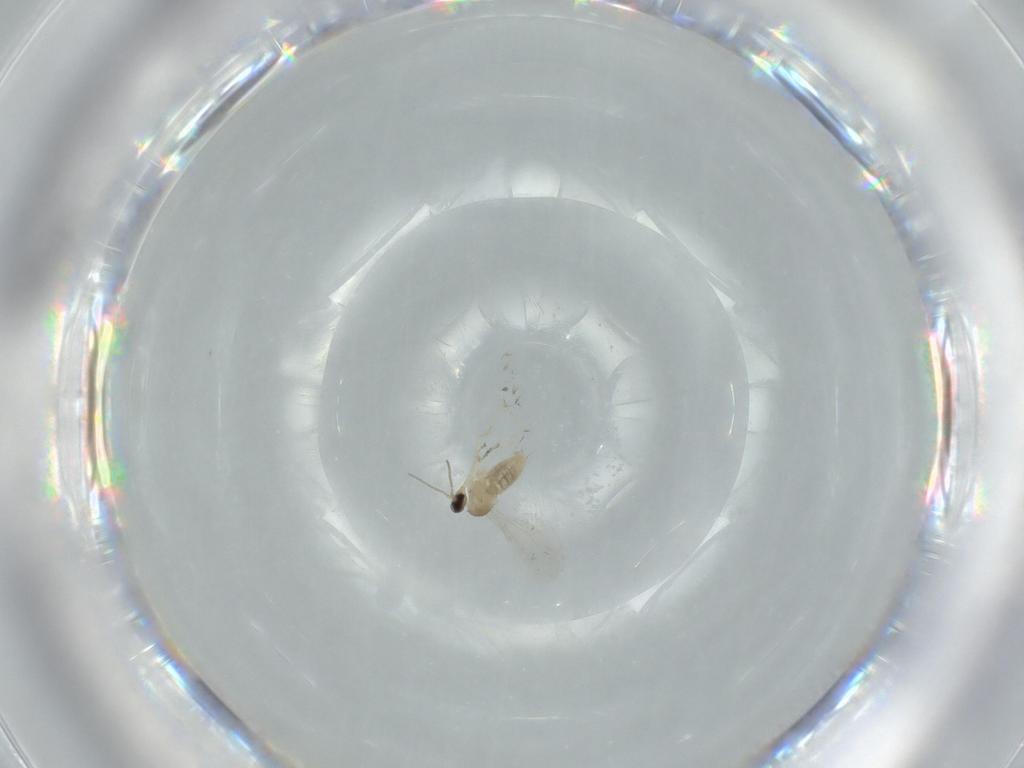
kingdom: Animalia
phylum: Arthropoda
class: Insecta
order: Diptera
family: Cecidomyiidae
